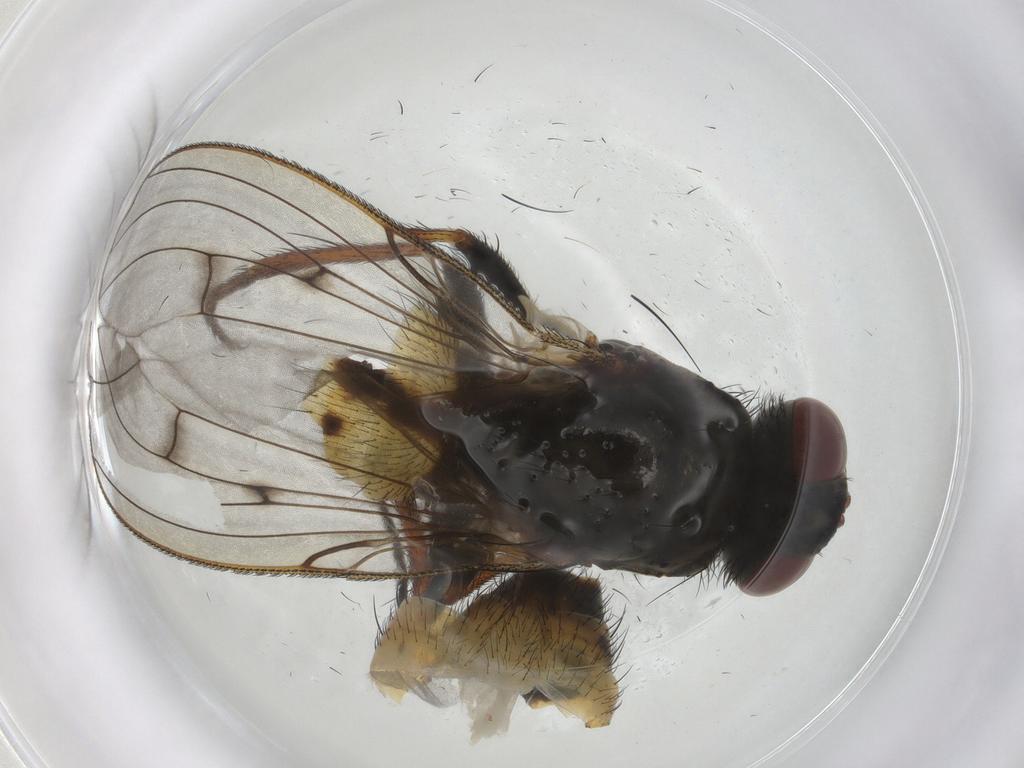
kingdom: Animalia
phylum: Arthropoda
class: Insecta
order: Diptera
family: Muscidae
